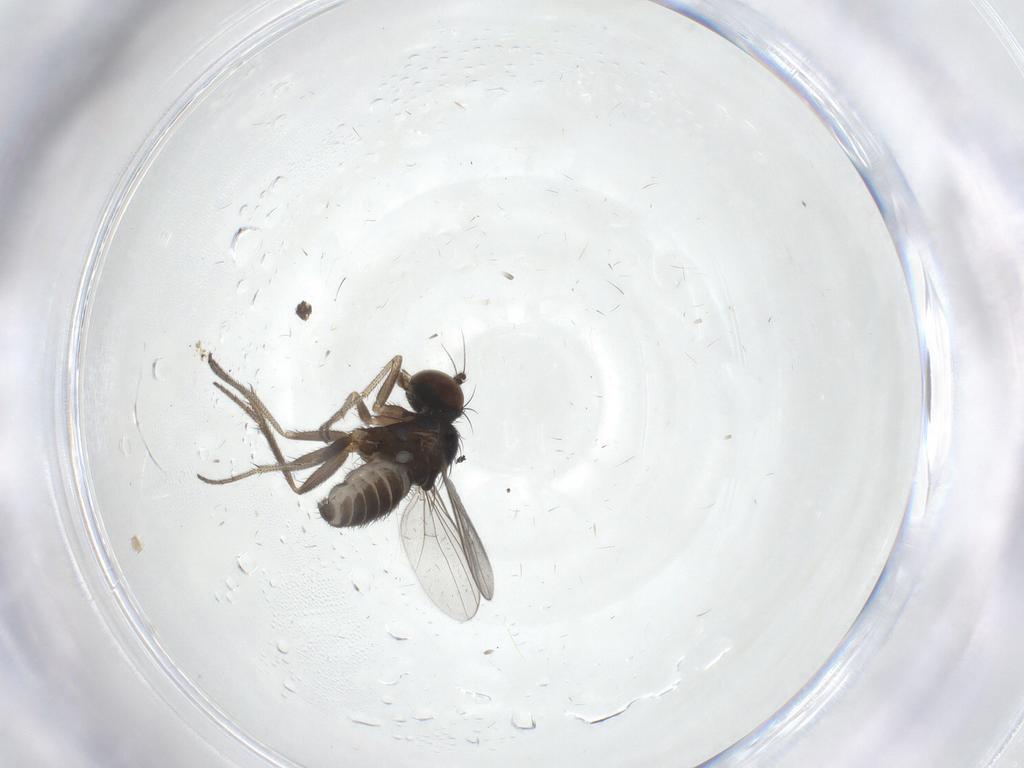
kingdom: Animalia
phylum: Arthropoda
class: Insecta
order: Diptera
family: Dolichopodidae
